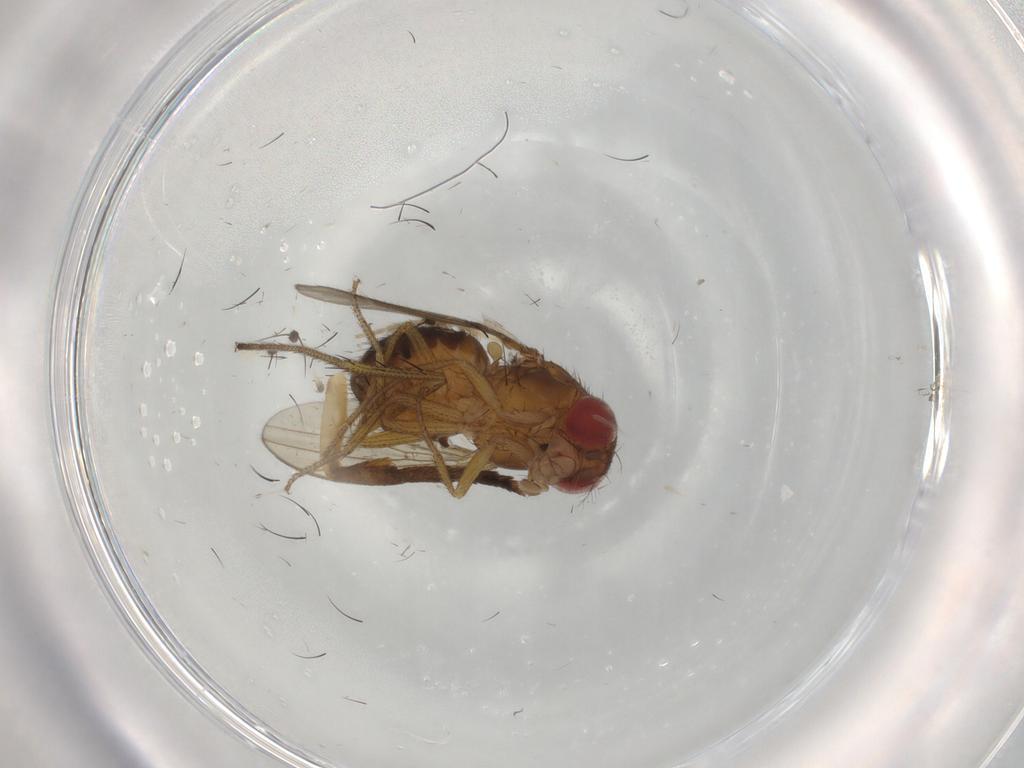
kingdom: Animalia
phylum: Arthropoda
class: Insecta
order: Diptera
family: Drosophilidae
